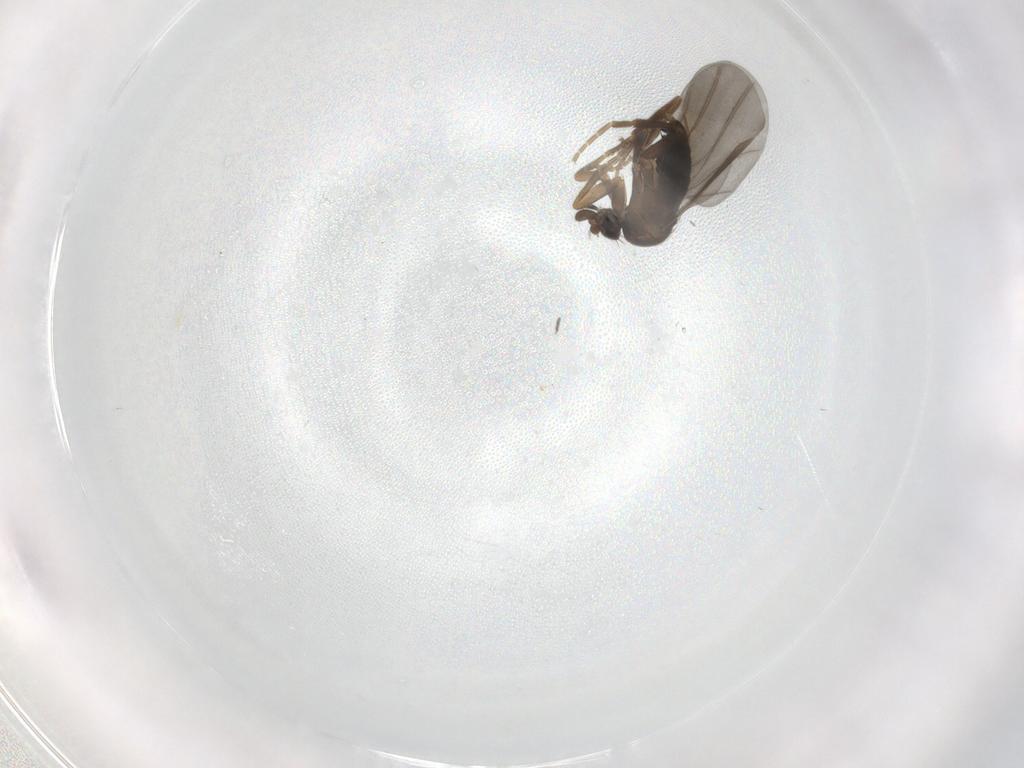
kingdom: Animalia
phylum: Arthropoda
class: Insecta
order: Diptera
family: Phoridae
